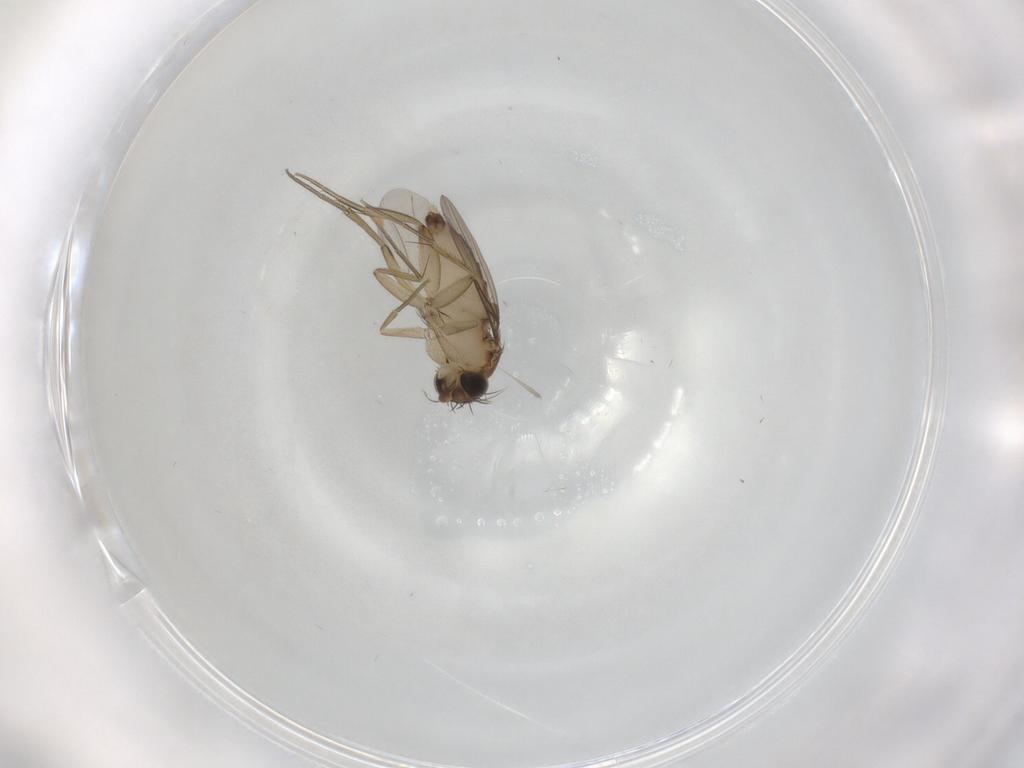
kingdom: Animalia
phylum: Arthropoda
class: Insecta
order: Diptera
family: Phoridae
